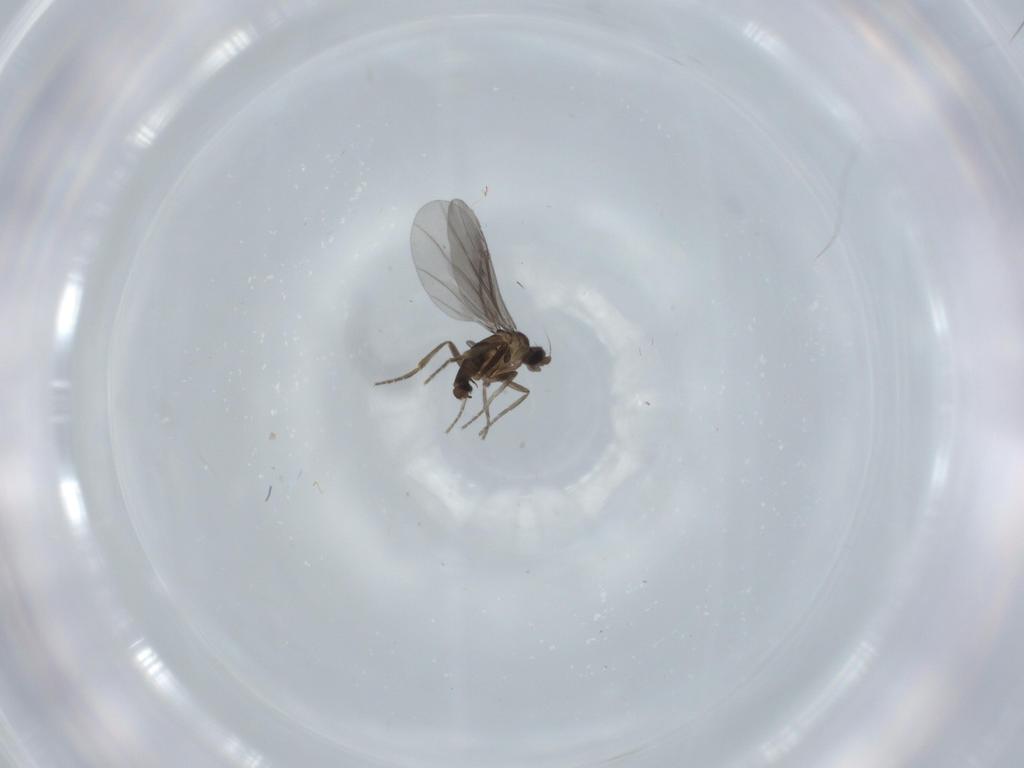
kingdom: Animalia
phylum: Arthropoda
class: Insecta
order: Diptera
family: Phoridae
